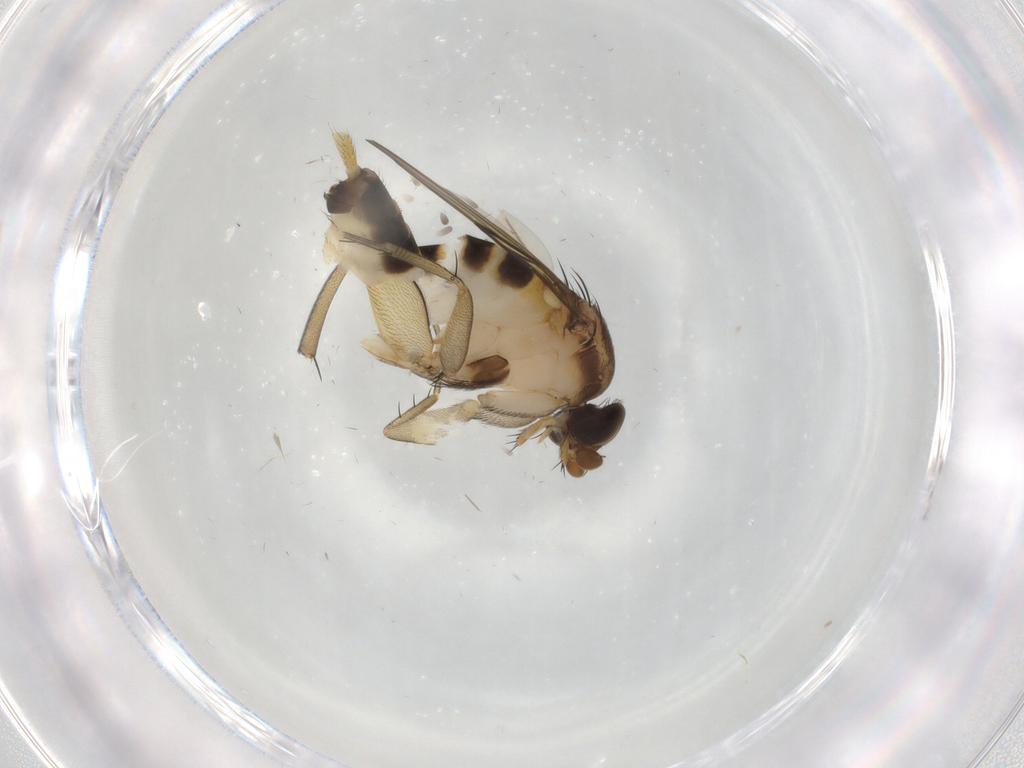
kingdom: Animalia
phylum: Arthropoda
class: Insecta
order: Diptera
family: Phoridae
